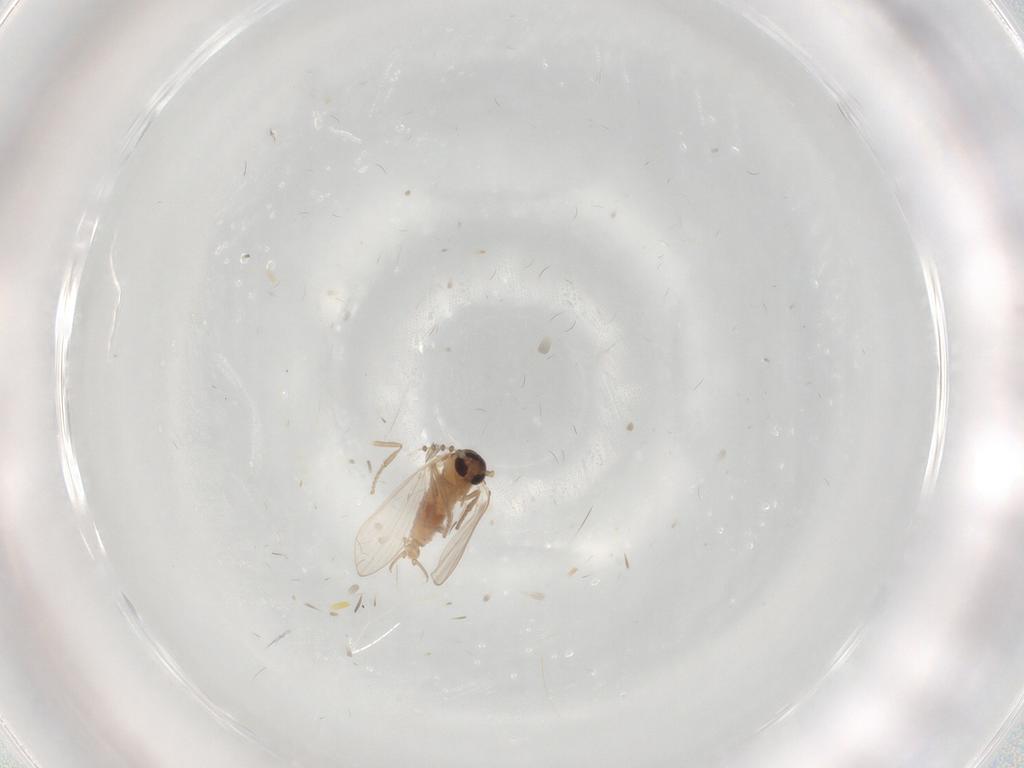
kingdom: Animalia
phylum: Arthropoda
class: Insecta
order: Diptera
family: Psychodidae
